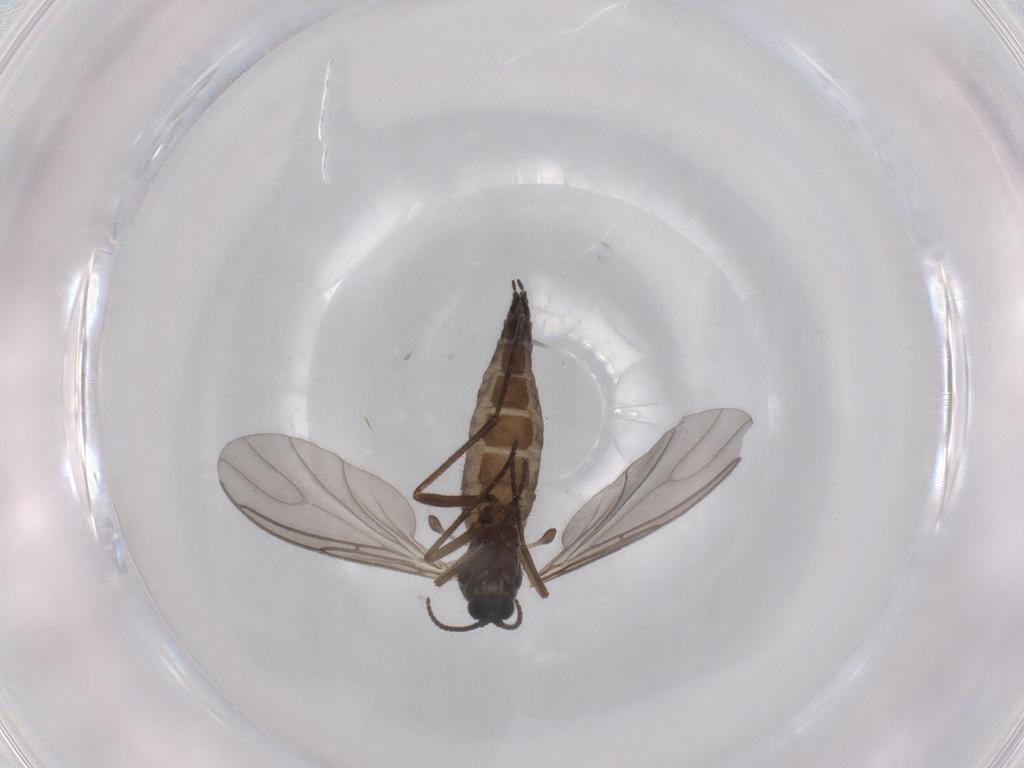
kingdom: Animalia
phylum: Arthropoda
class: Insecta
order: Diptera
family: Sciaridae
